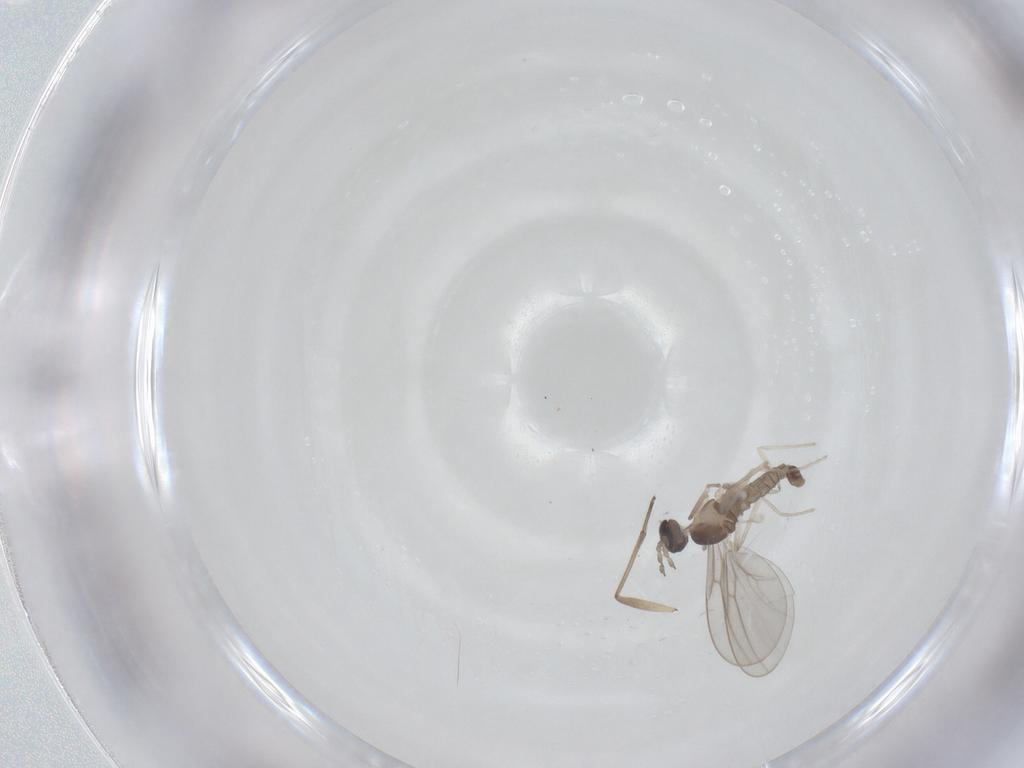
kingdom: Animalia
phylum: Arthropoda
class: Insecta
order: Diptera
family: Cecidomyiidae
